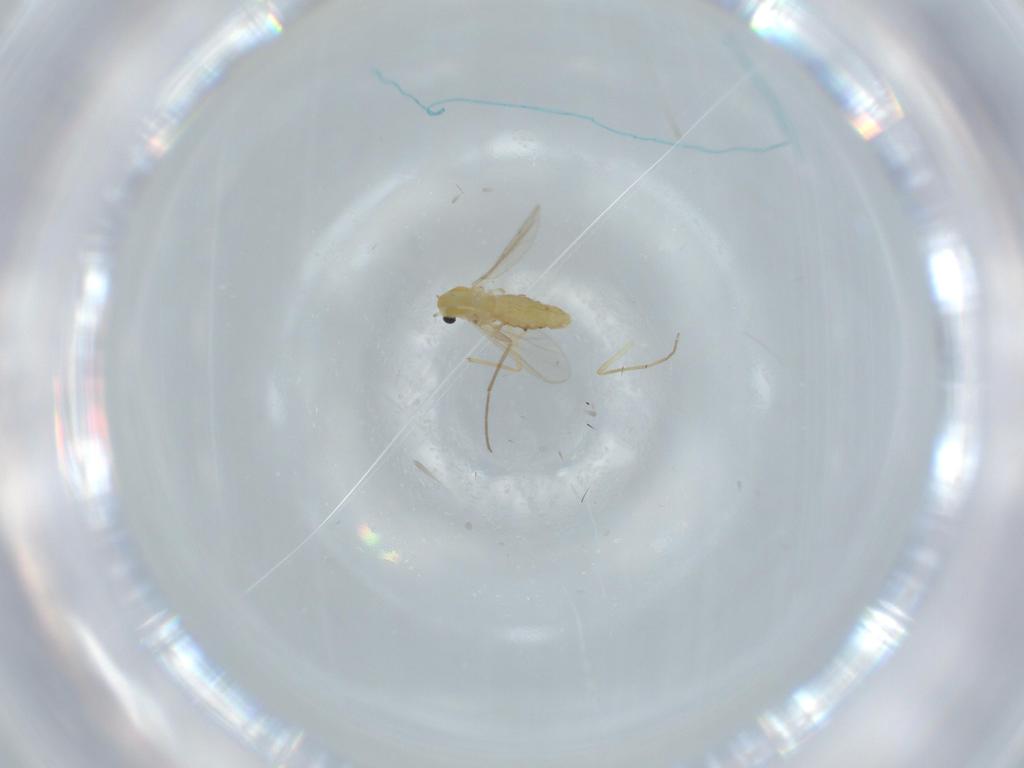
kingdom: Animalia
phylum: Arthropoda
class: Insecta
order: Diptera
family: Chironomidae
